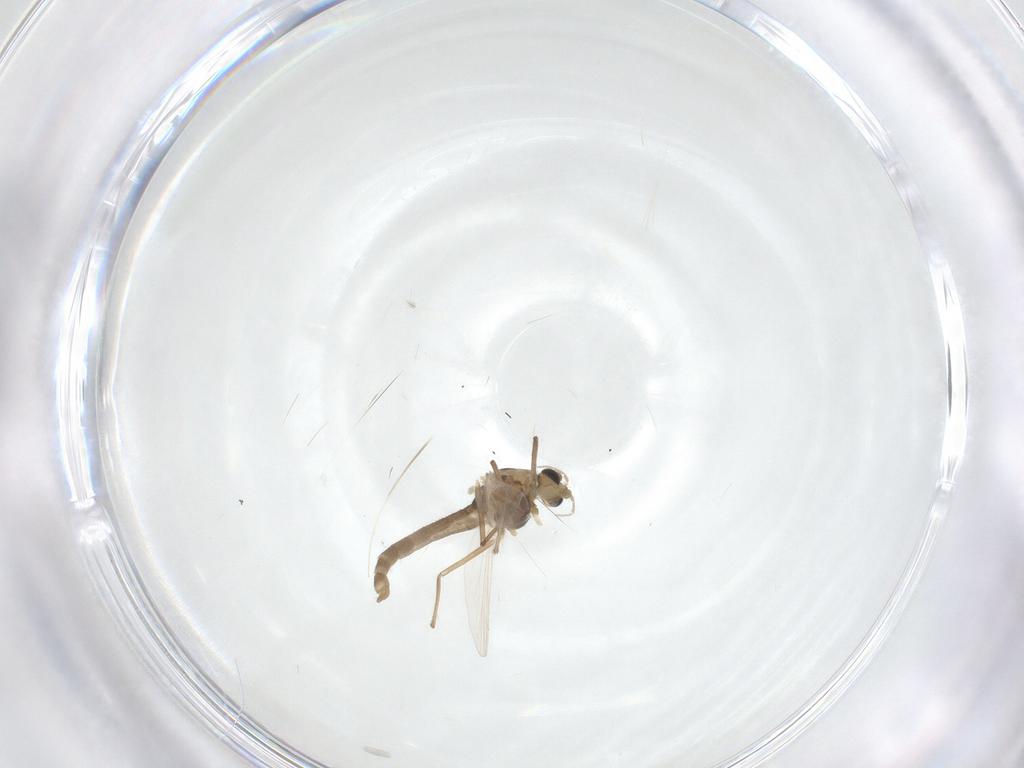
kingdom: Animalia
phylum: Arthropoda
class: Insecta
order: Diptera
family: Chironomidae
